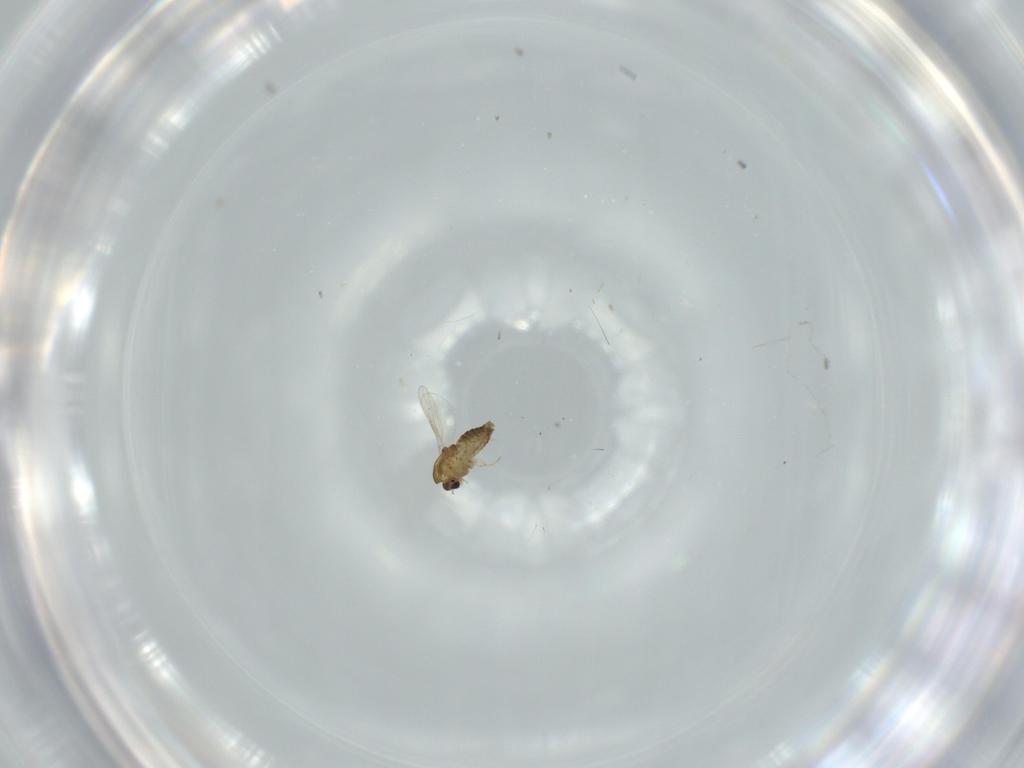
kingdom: Animalia
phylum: Arthropoda
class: Insecta
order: Diptera
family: Chironomidae
